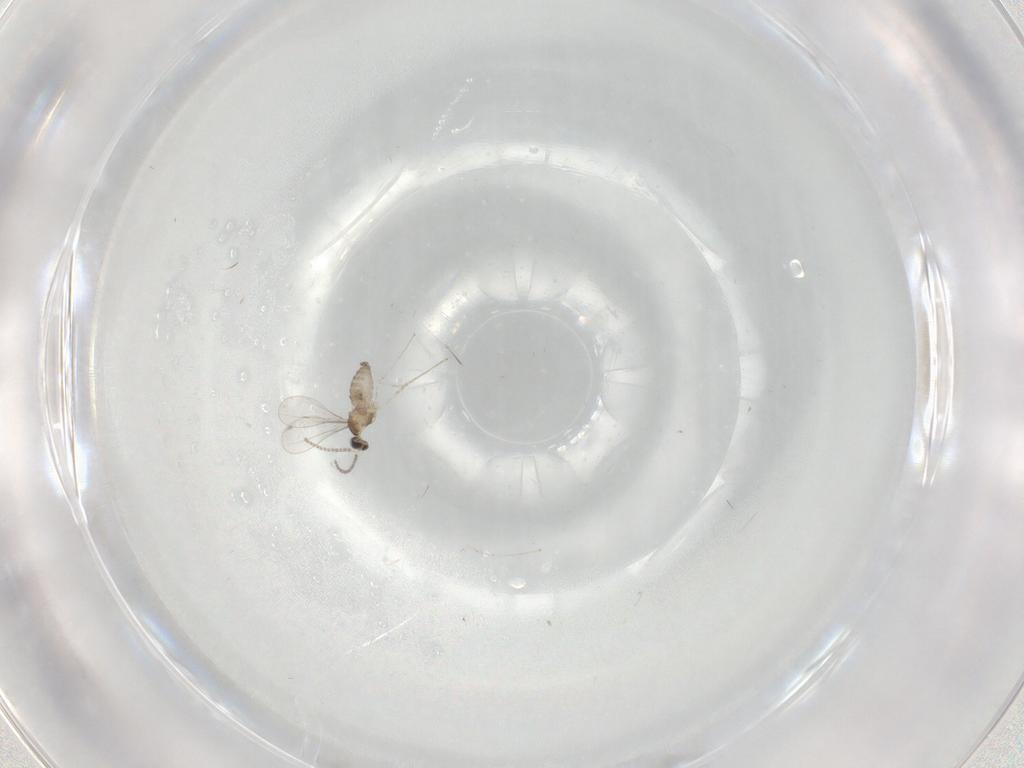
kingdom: Animalia
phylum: Arthropoda
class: Insecta
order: Diptera
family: Cecidomyiidae
